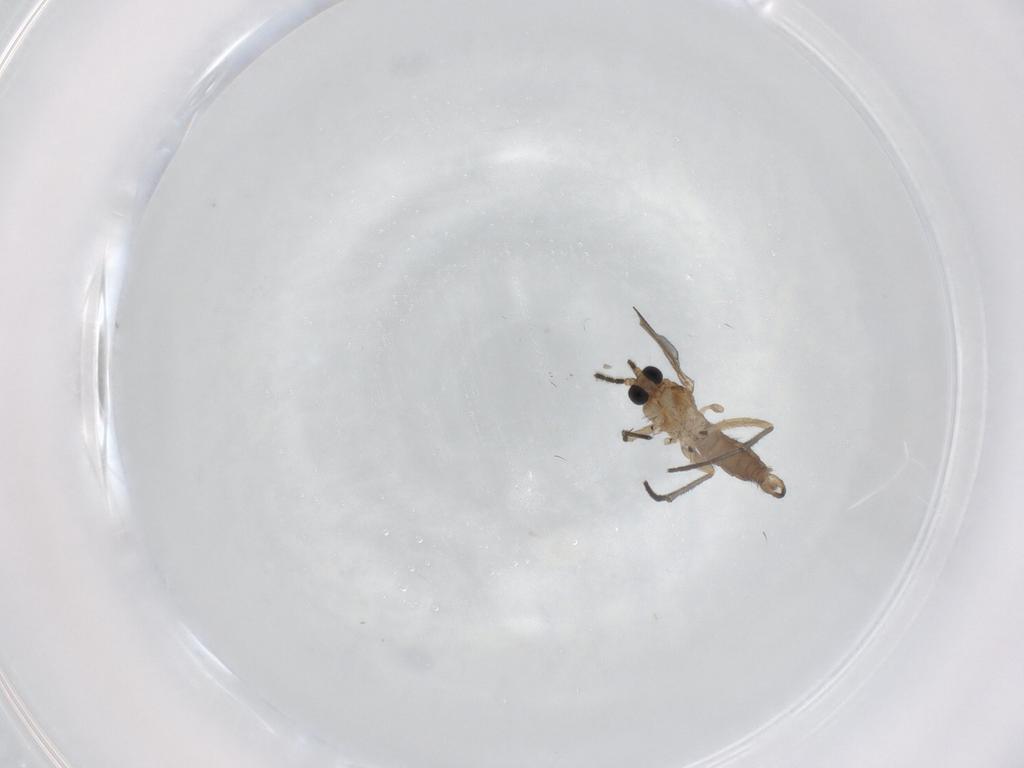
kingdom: Animalia
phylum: Arthropoda
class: Insecta
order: Diptera
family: Sciaridae
